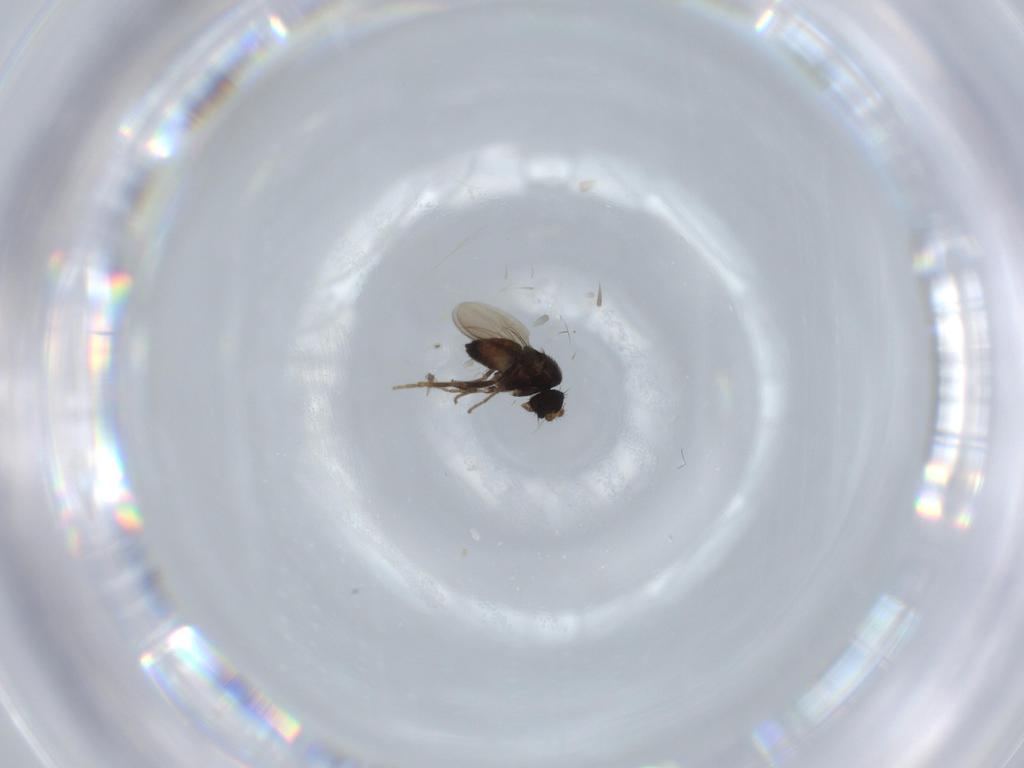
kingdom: Animalia
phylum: Arthropoda
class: Insecta
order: Diptera
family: Sphaeroceridae
